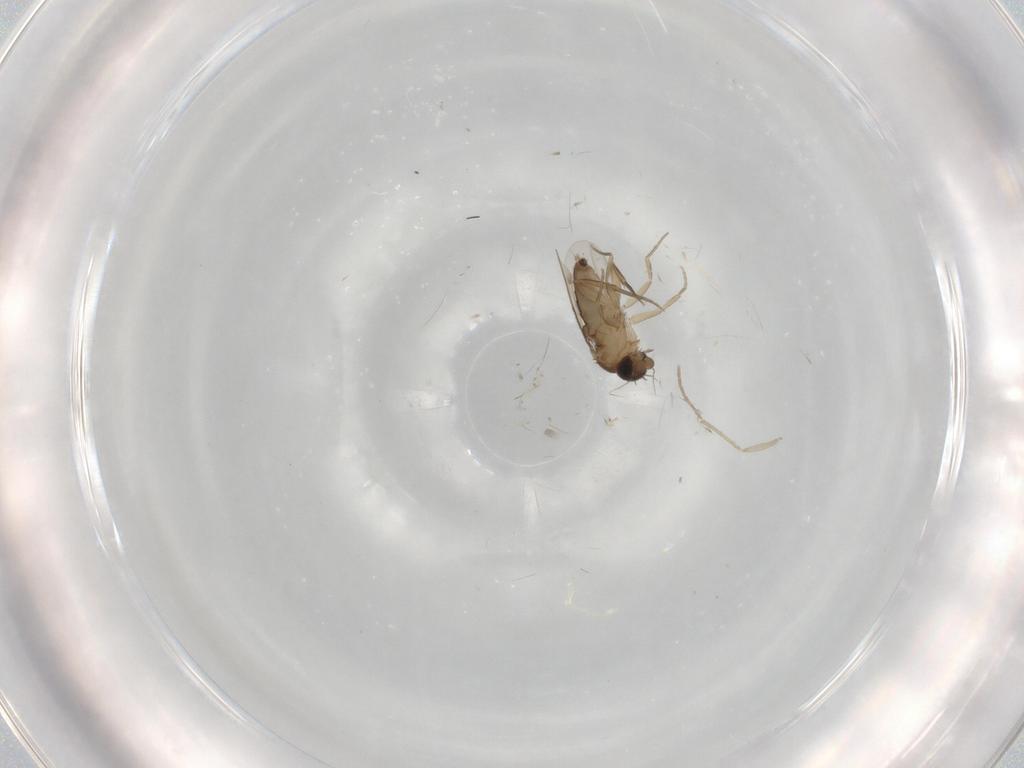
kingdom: Animalia
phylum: Arthropoda
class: Insecta
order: Diptera
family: Phoridae
